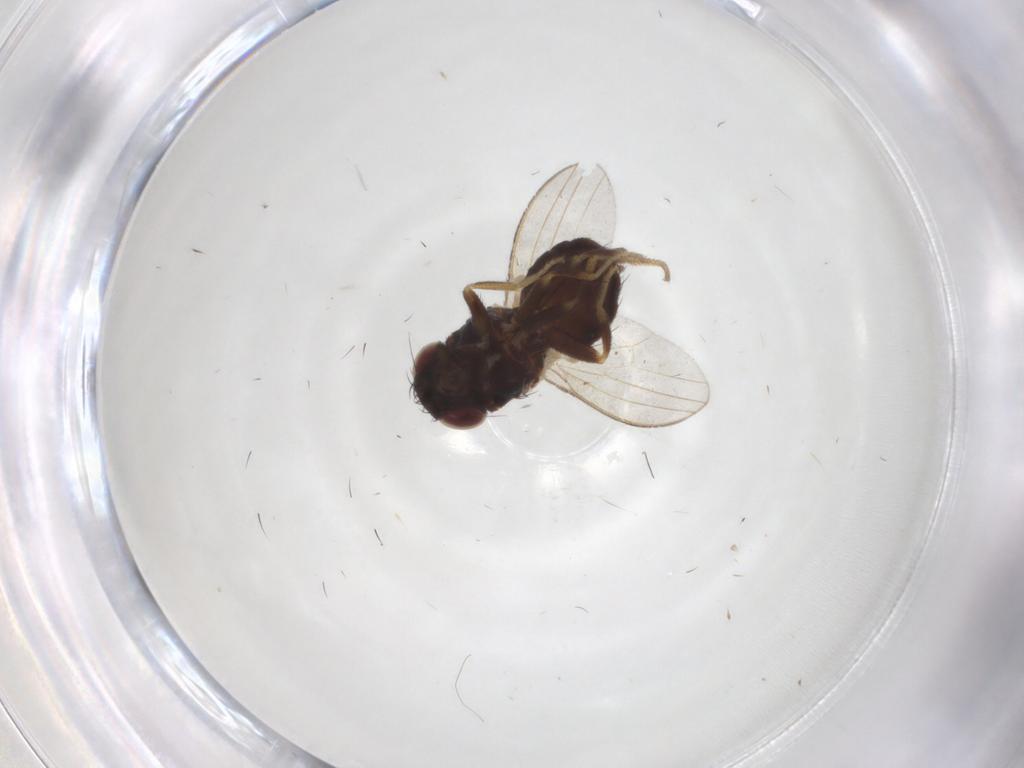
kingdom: Animalia
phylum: Arthropoda
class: Insecta
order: Diptera
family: Milichiidae
